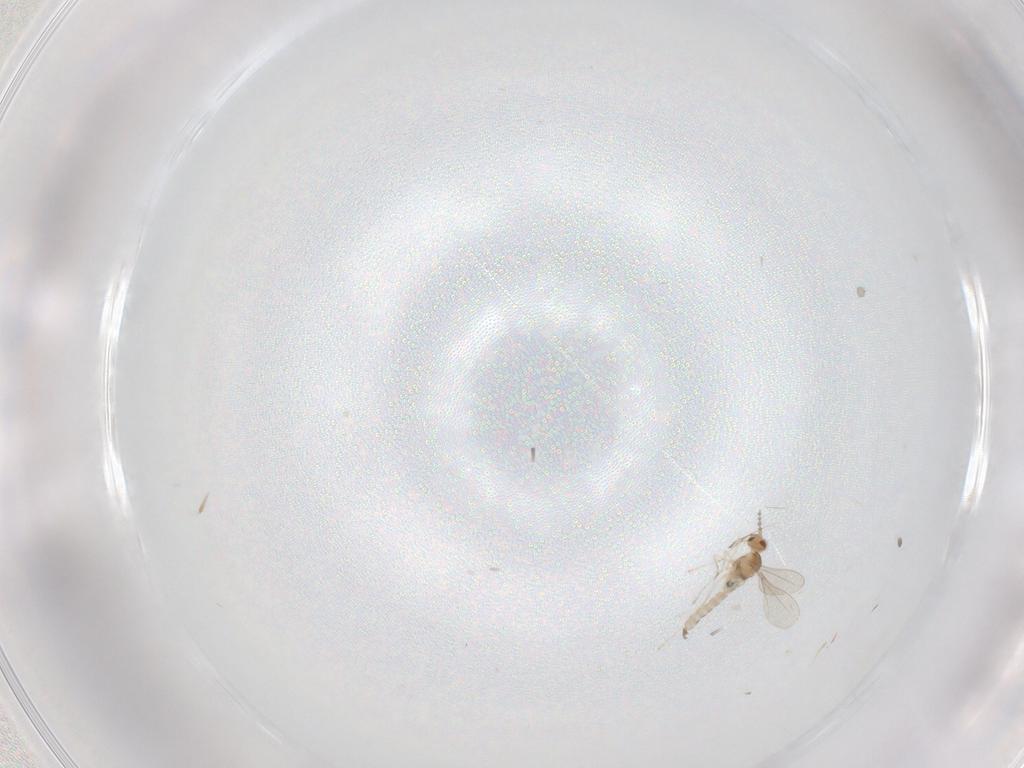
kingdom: Animalia
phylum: Arthropoda
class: Insecta
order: Diptera
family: Cecidomyiidae
